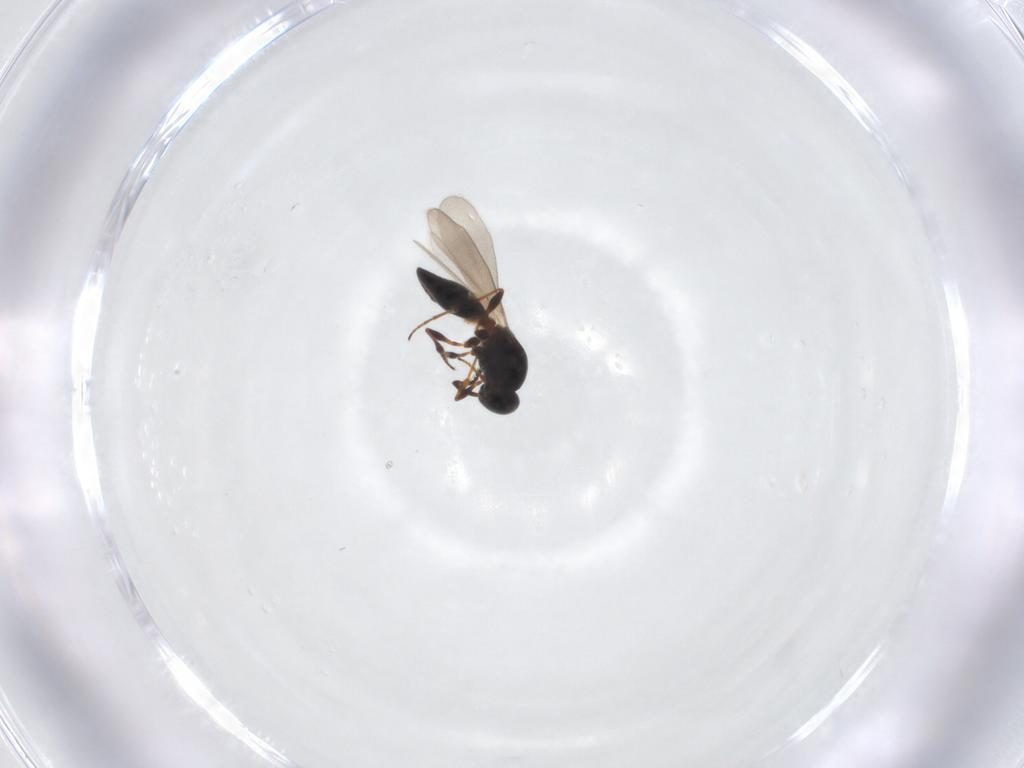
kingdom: Animalia
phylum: Arthropoda
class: Insecta
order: Hymenoptera
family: Platygastridae
